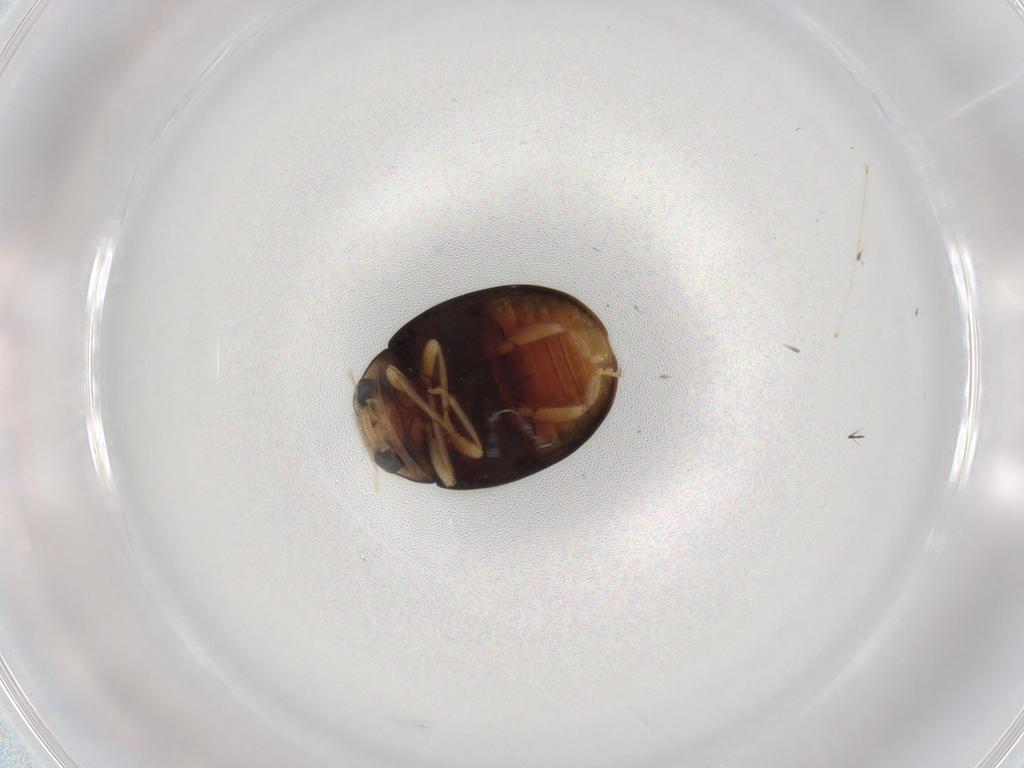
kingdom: Animalia
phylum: Arthropoda
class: Insecta
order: Coleoptera
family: Coccinellidae
